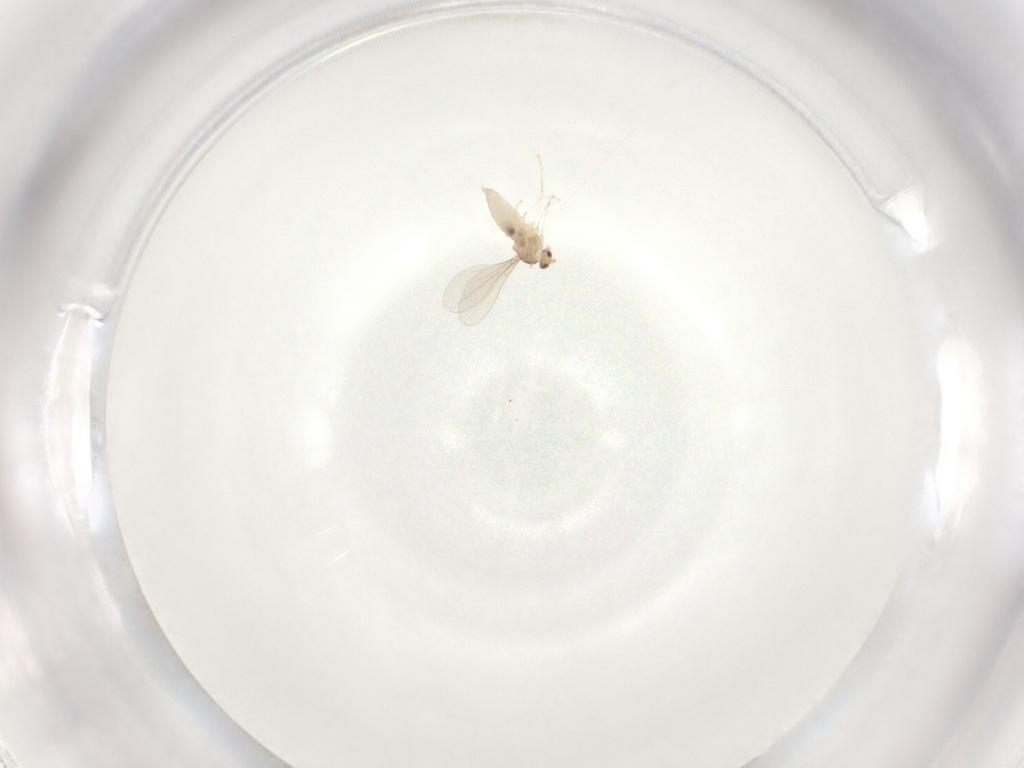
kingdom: Animalia
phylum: Arthropoda
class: Insecta
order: Diptera
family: Cecidomyiidae
